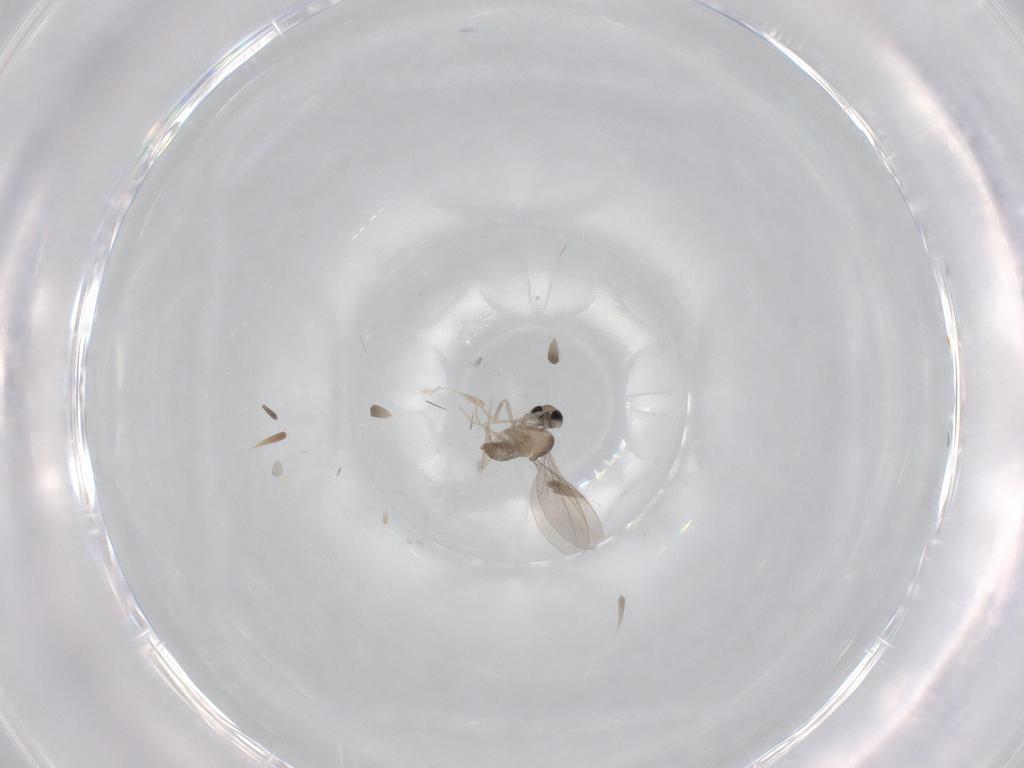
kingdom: Animalia
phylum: Arthropoda
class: Insecta
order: Diptera
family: Cecidomyiidae
